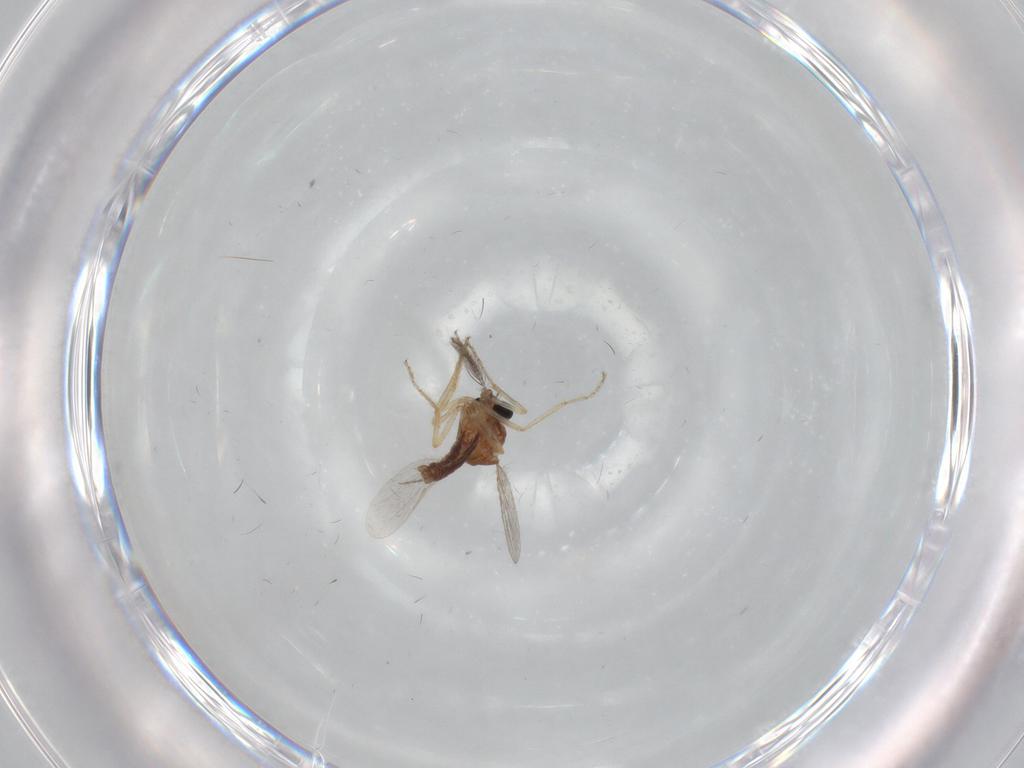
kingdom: Animalia
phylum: Arthropoda
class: Insecta
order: Diptera
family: Ceratopogonidae
